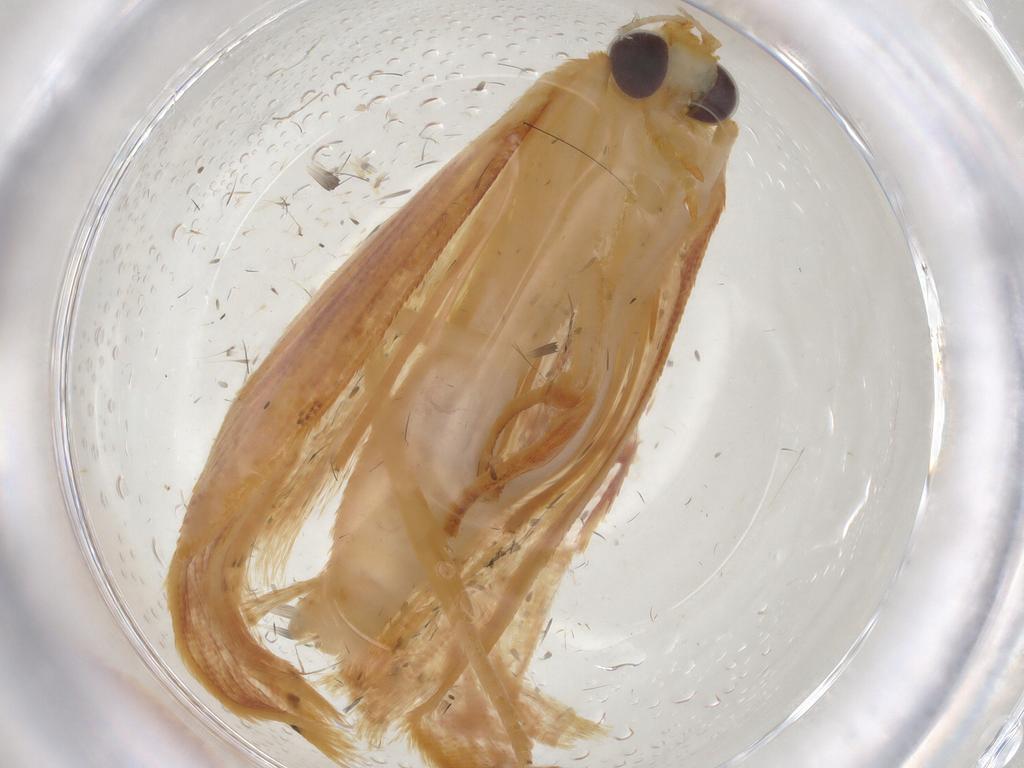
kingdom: Animalia
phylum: Arthropoda
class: Insecta
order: Lepidoptera
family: Erebidae
